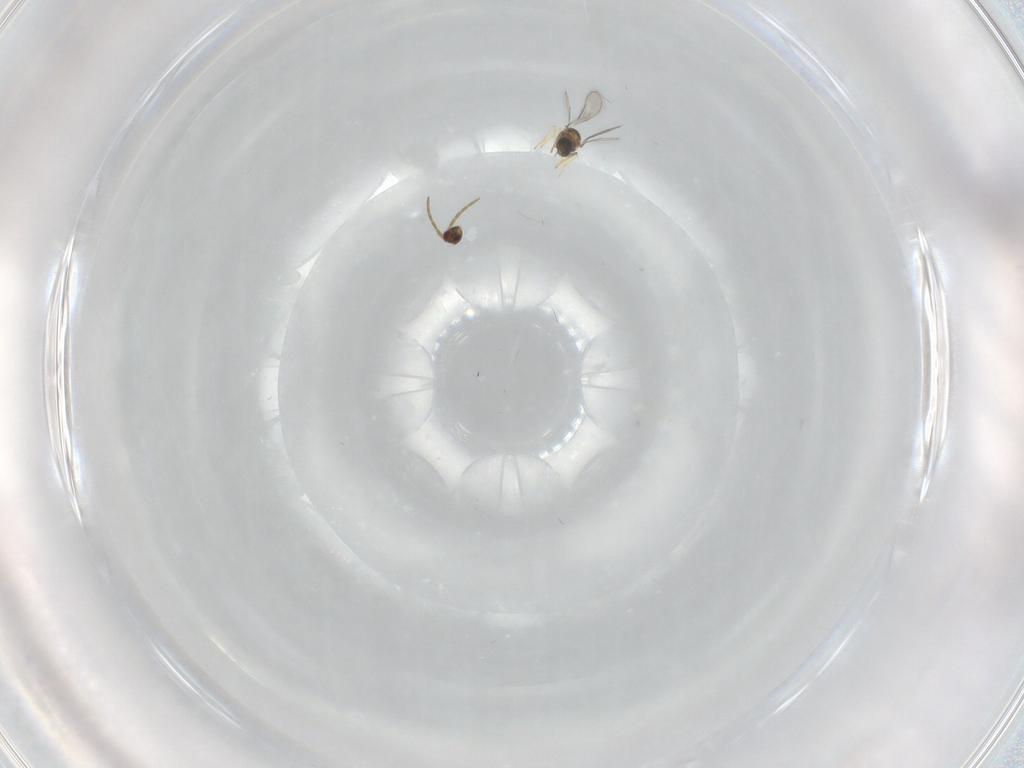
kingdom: Animalia
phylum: Arthropoda
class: Insecta
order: Hymenoptera
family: Aphelinidae
